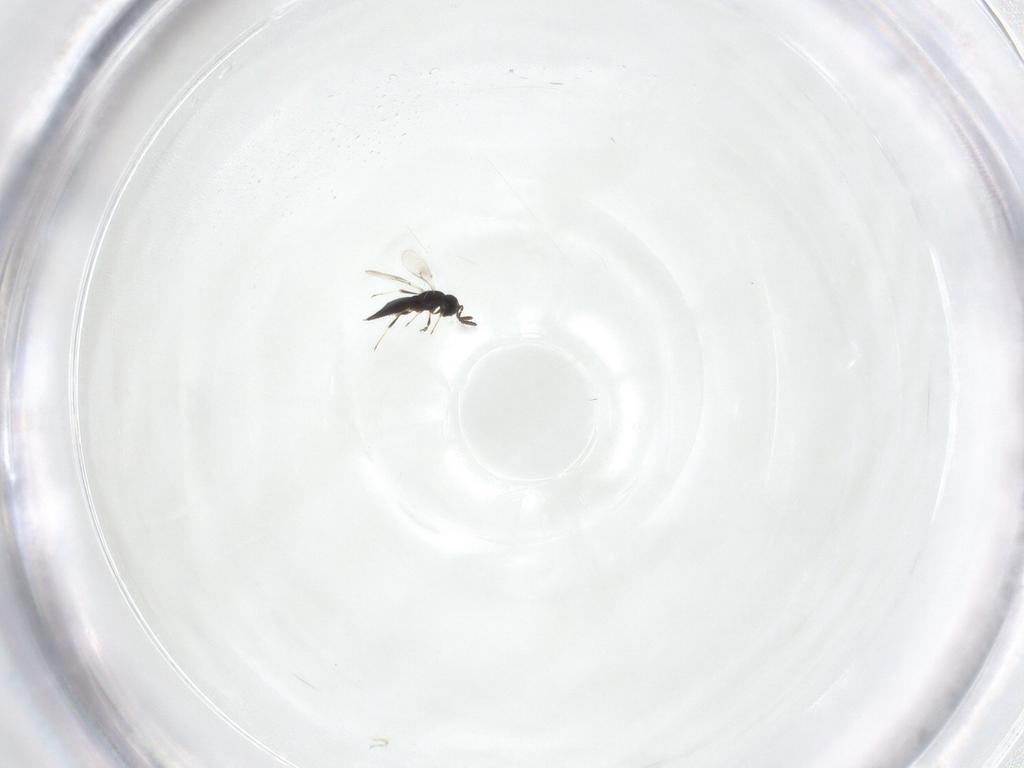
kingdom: Animalia
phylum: Arthropoda
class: Insecta
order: Hymenoptera
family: Scelionidae
